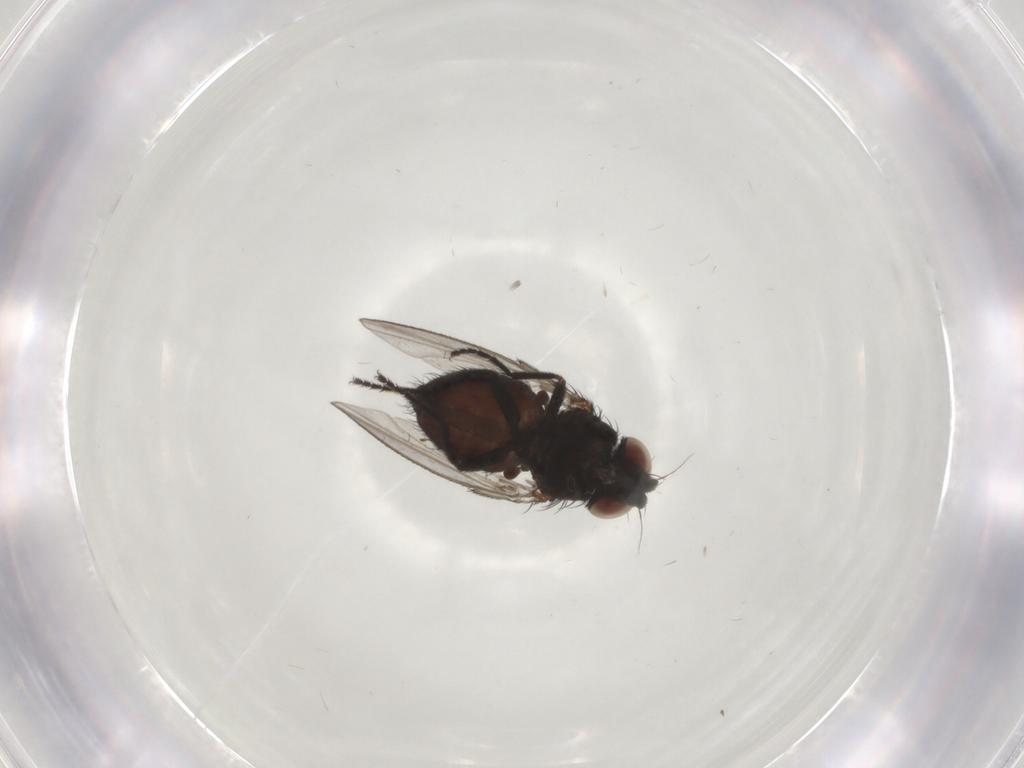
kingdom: Animalia
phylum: Arthropoda
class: Insecta
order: Diptera
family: Milichiidae
